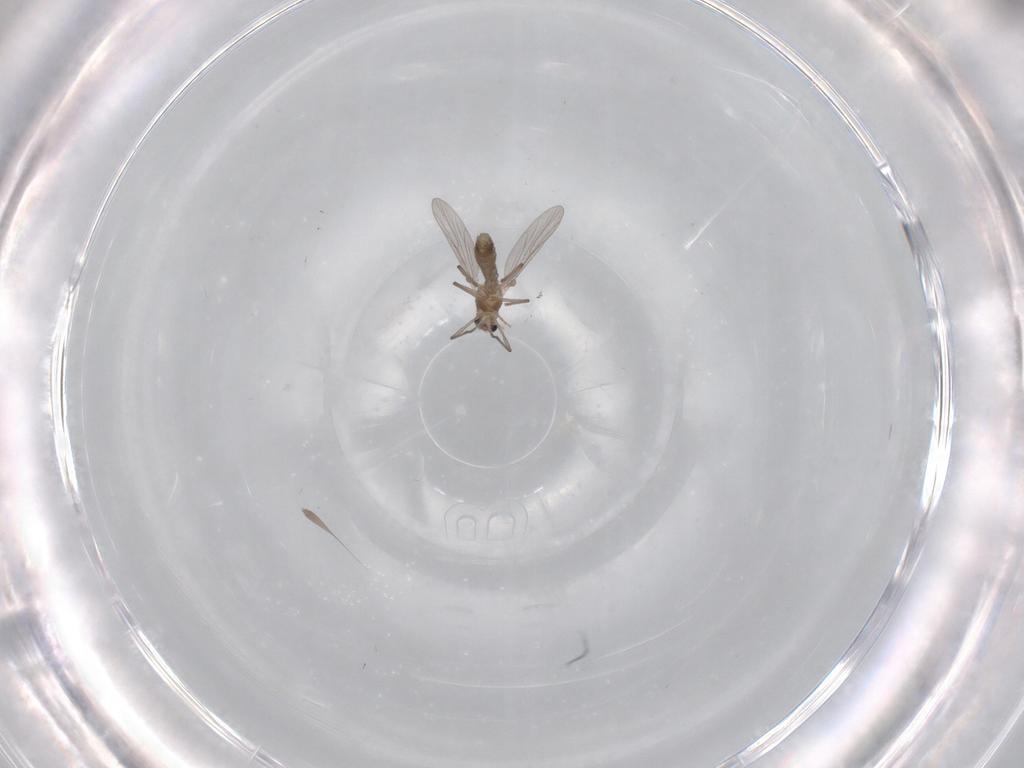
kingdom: Animalia
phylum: Arthropoda
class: Insecta
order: Diptera
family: Chironomidae
